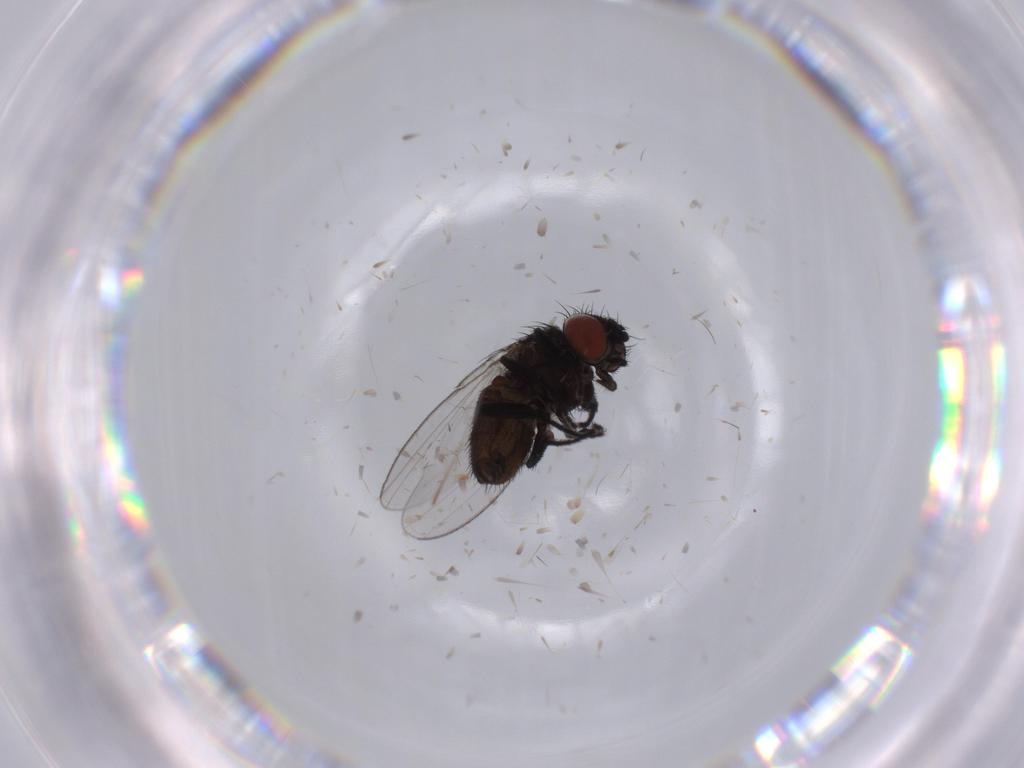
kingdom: Animalia
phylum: Arthropoda
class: Insecta
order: Diptera
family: Milichiidae
